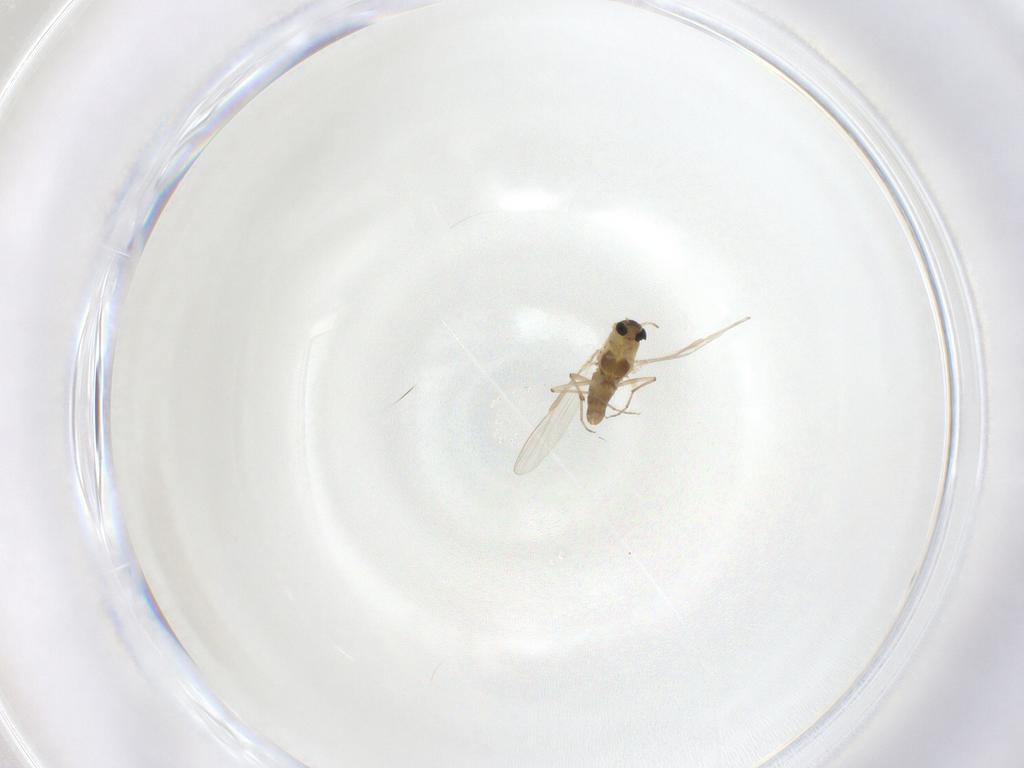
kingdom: Animalia
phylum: Arthropoda
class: Insecta
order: Diptera
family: Chironomidae
